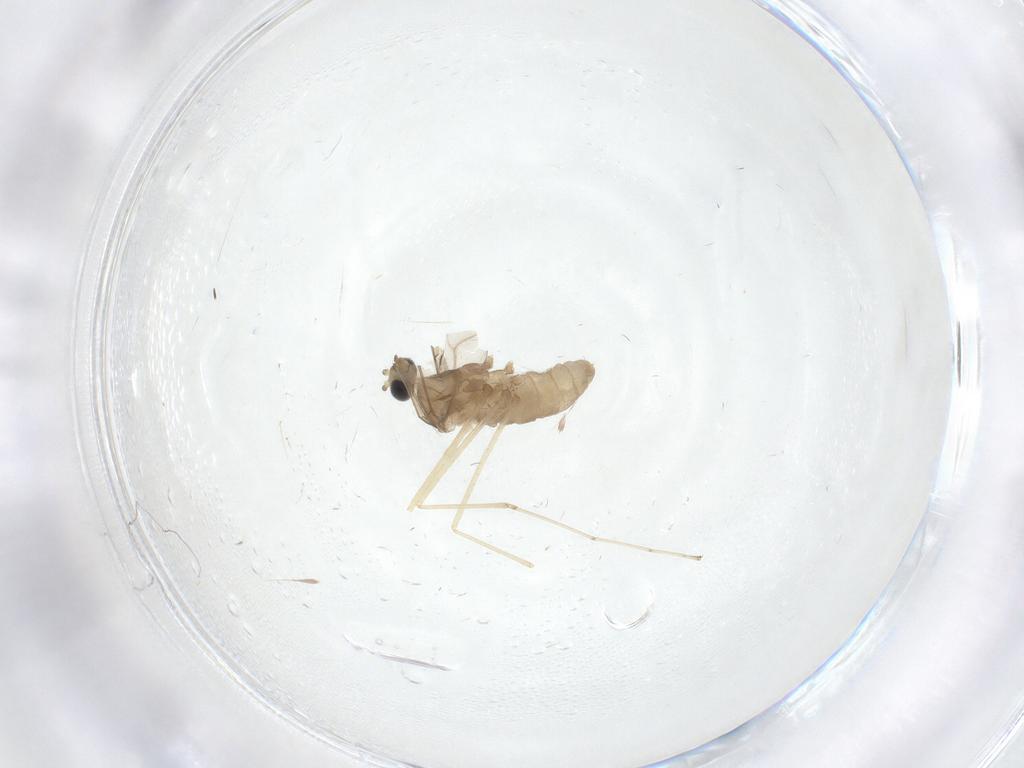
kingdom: Animalia
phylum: Arthropoda
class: Insecta
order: Diptera
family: Cecidomyiidae
